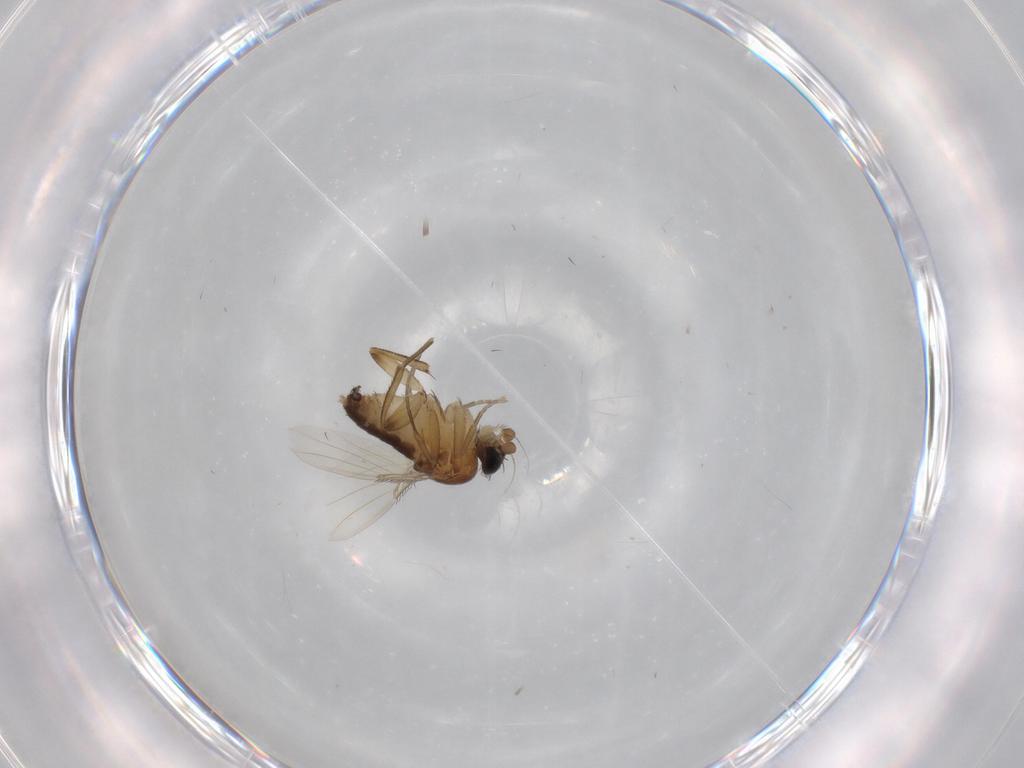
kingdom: Animalia
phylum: Arthropoda
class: Insecta
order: Diptera
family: Phoridae
